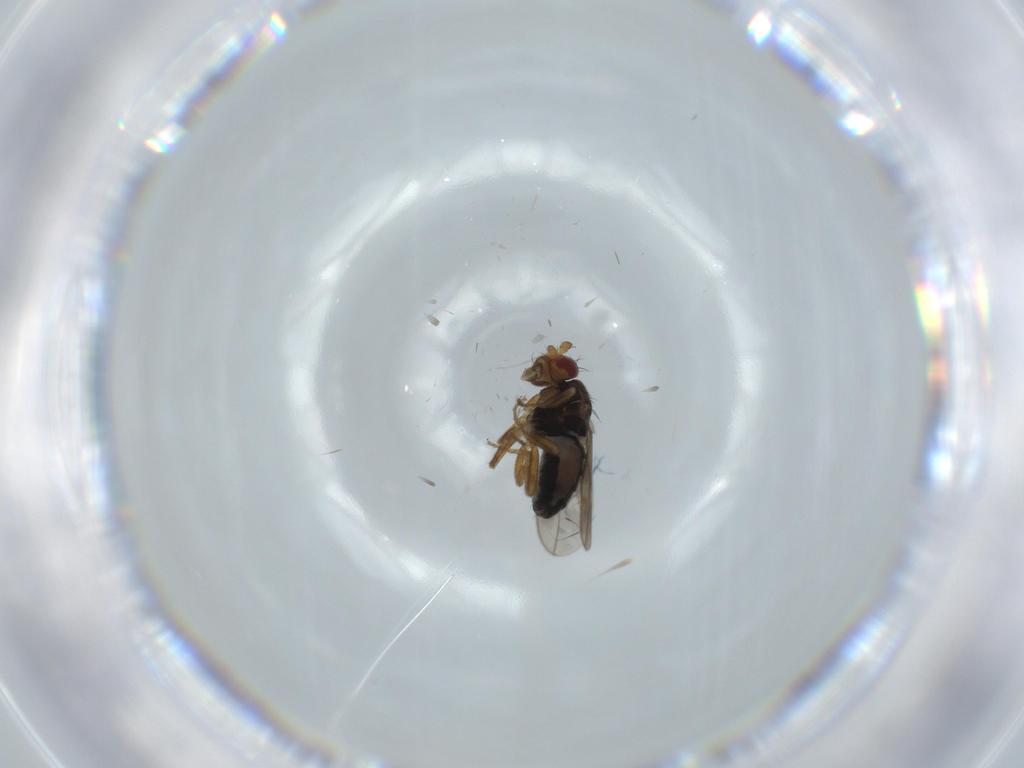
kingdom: Animalia
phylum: Arthropoda
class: Insecta
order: Diptera
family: Sphaeroceridae
